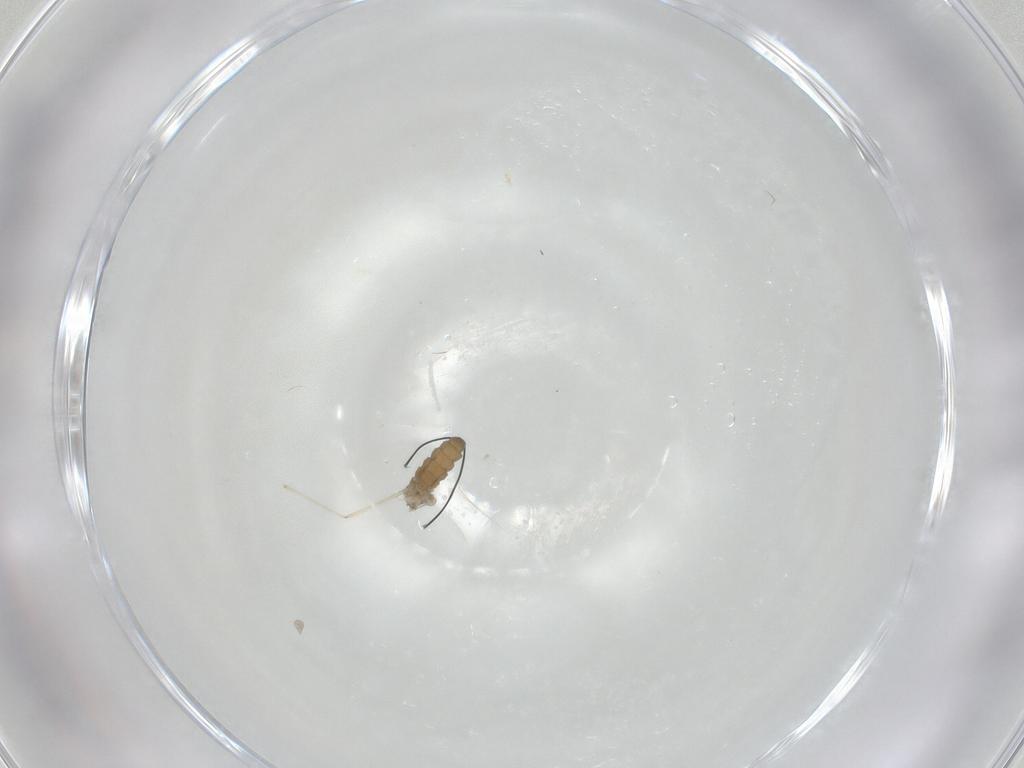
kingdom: Animalia
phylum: Arthropoda
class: Insecta
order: Diptera
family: Cecidomyiidae
